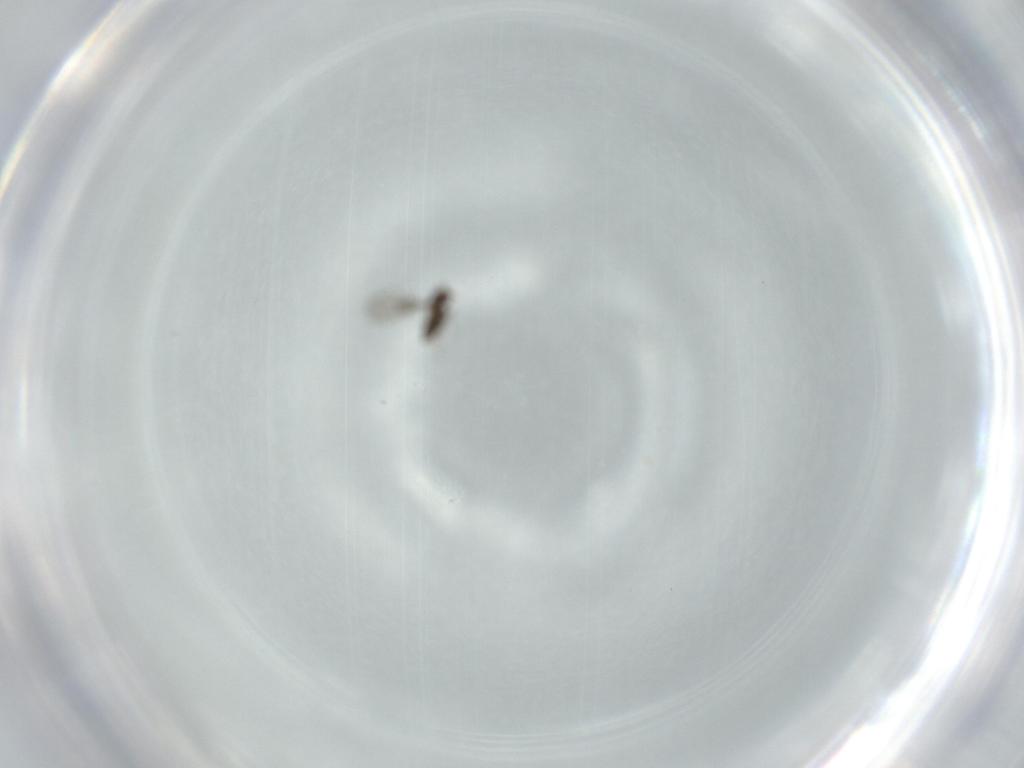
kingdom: Animalia
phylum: Arthropoda
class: Insecta
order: Hymenoptera
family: Trichogrammatidae
